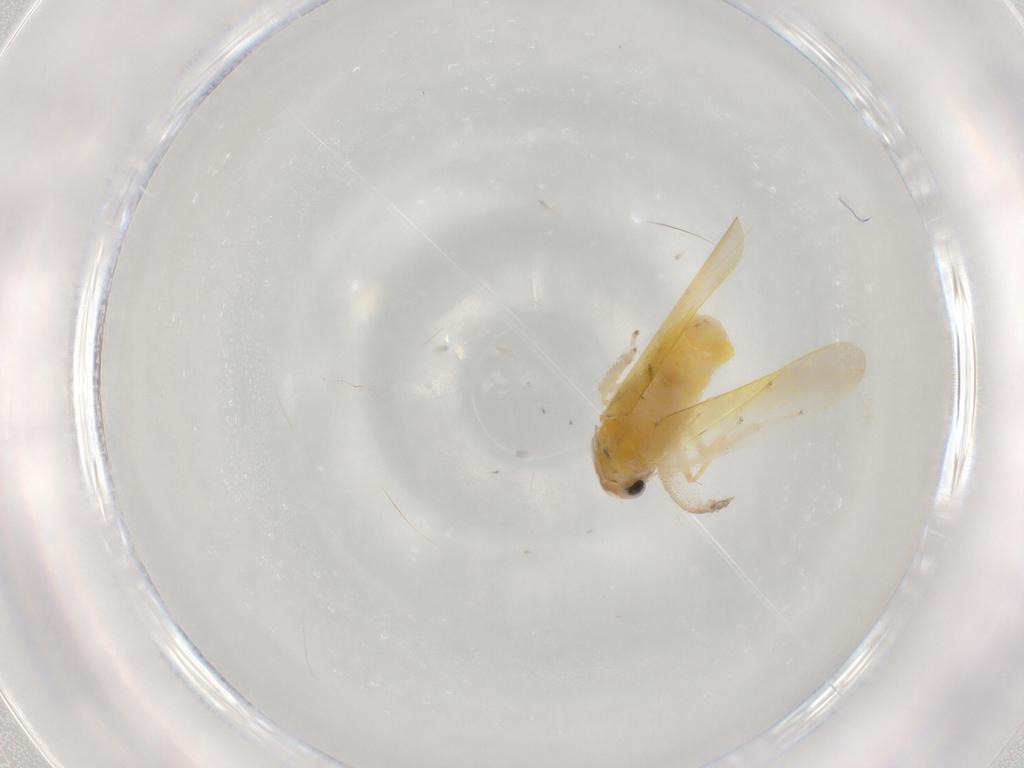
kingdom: Animalia
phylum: Arthropoda
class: Insecta
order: Hemiptera
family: Cicadellidae
